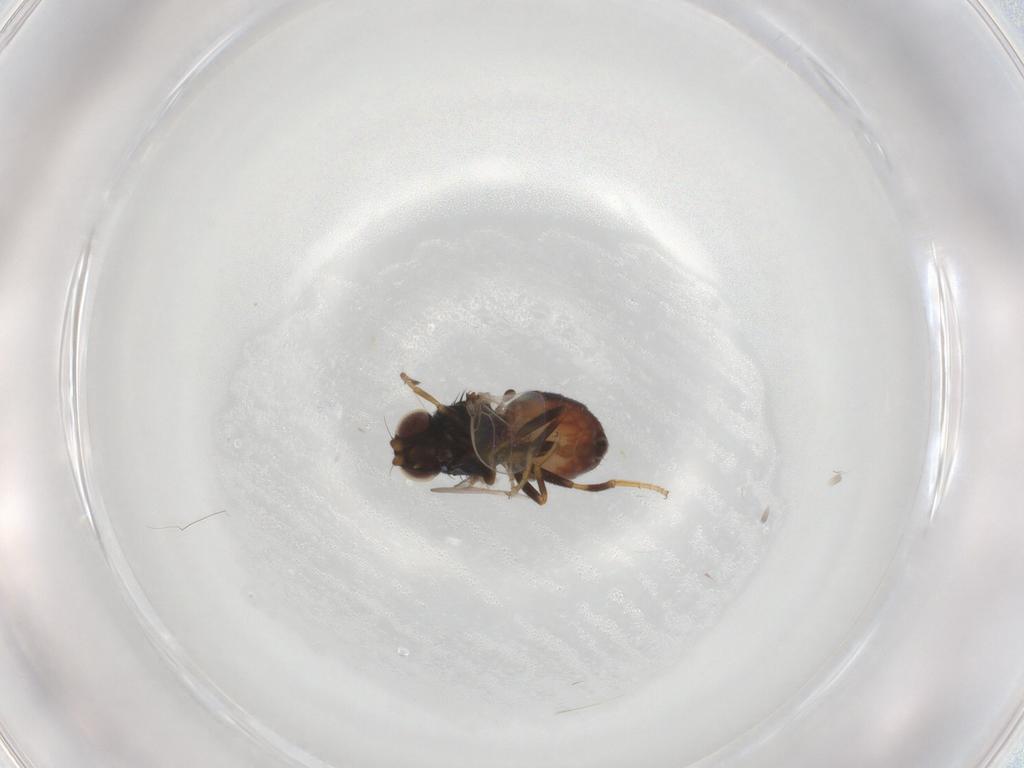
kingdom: Animalia
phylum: Arthropoda
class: Insecta
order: Diptera
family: Chloropidae
